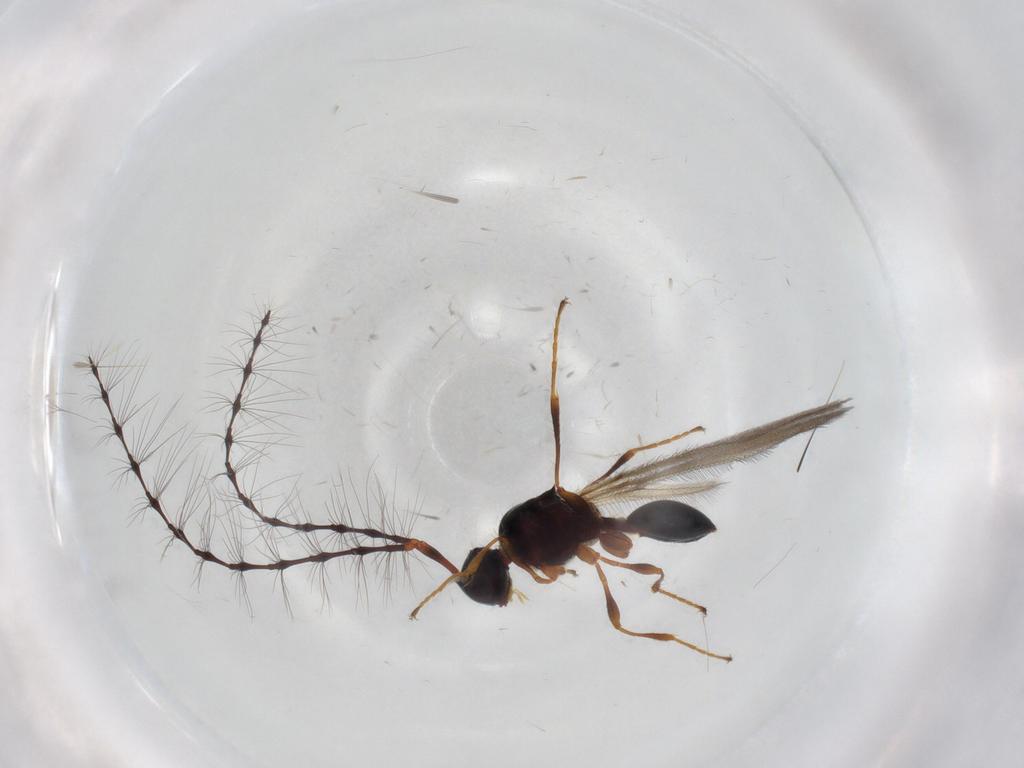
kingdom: Animalia
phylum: Arthropoda
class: Insecta
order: Hymenoptera
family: Diapriidae
